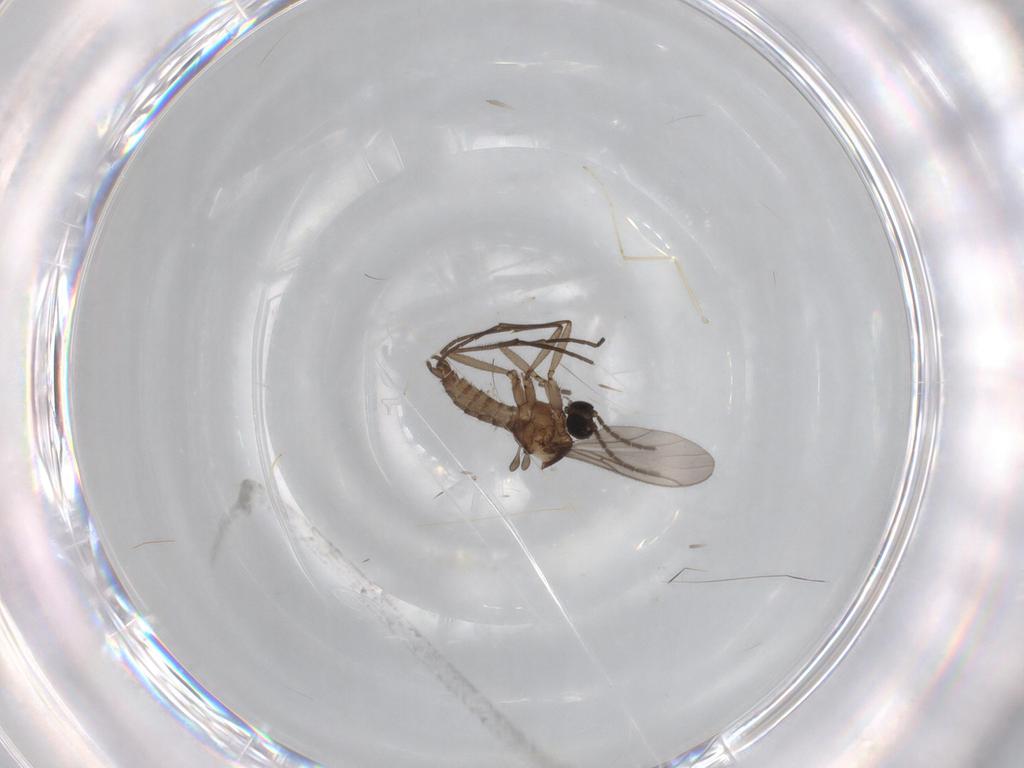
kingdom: Animalia
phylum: Arthropoda
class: Insecta
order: Diptera
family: Sciaridae
